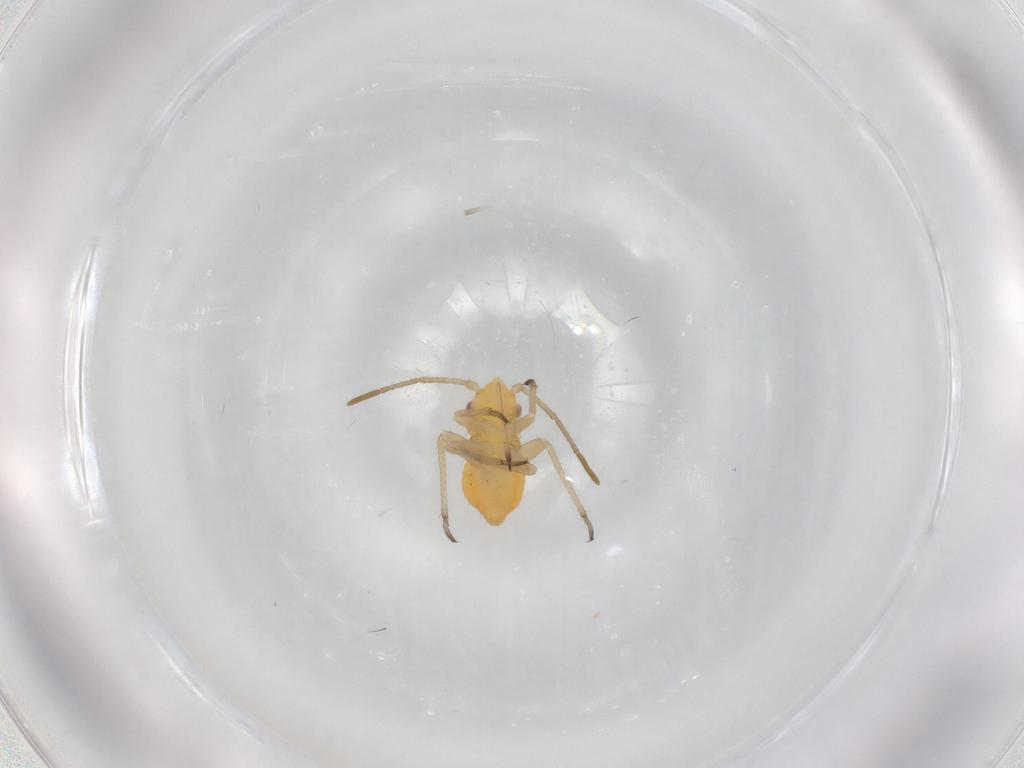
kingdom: Animalia
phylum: Arthropoda
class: Insecta
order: Hemiptera
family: Miridae
